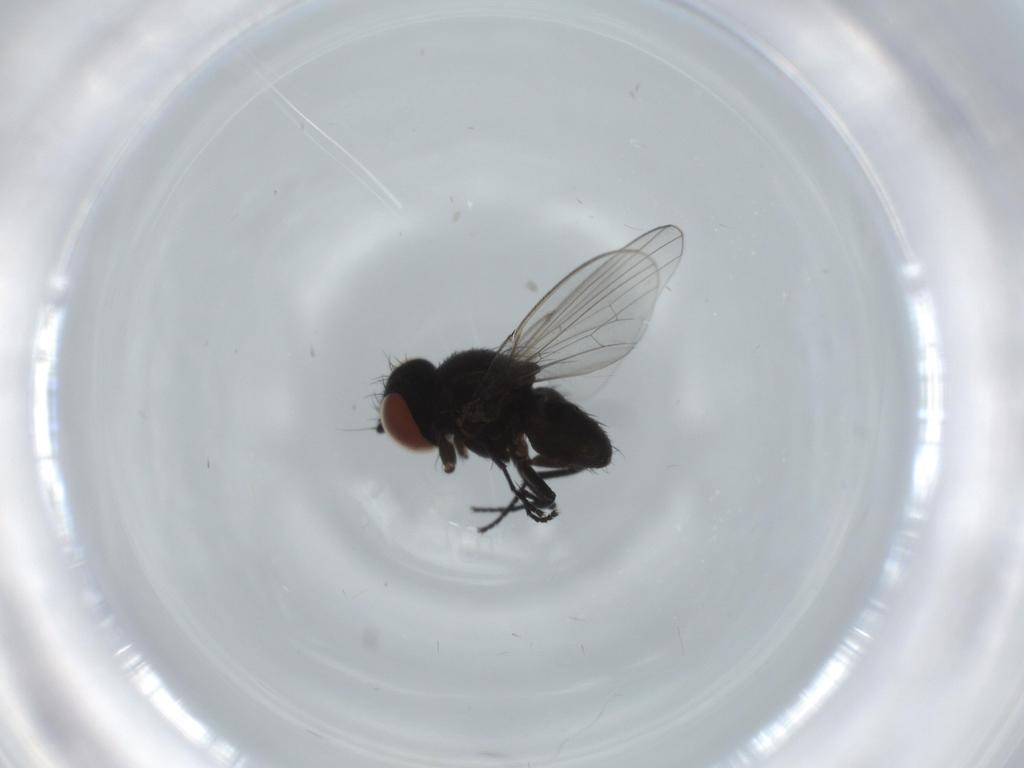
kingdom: Animalia
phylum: Arthropoda
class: Insecta
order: Diptera
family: Milichiidae
